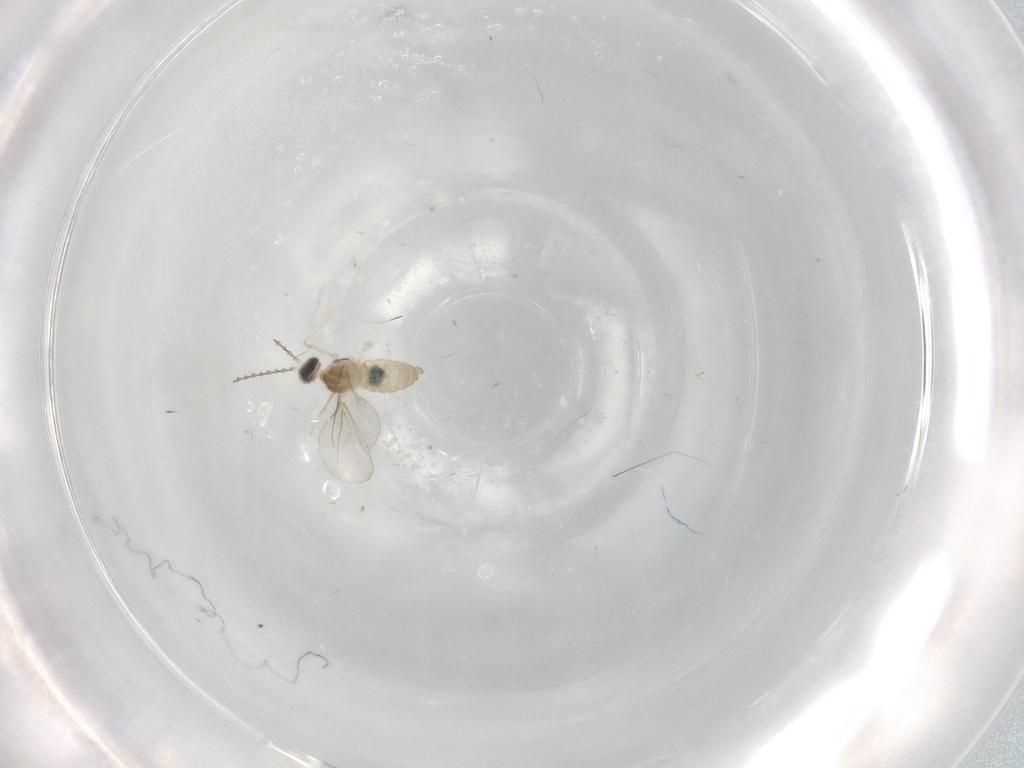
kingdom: Animalia
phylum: Arthropoda
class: Insecta
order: Diptera
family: Cecidomyiidae
